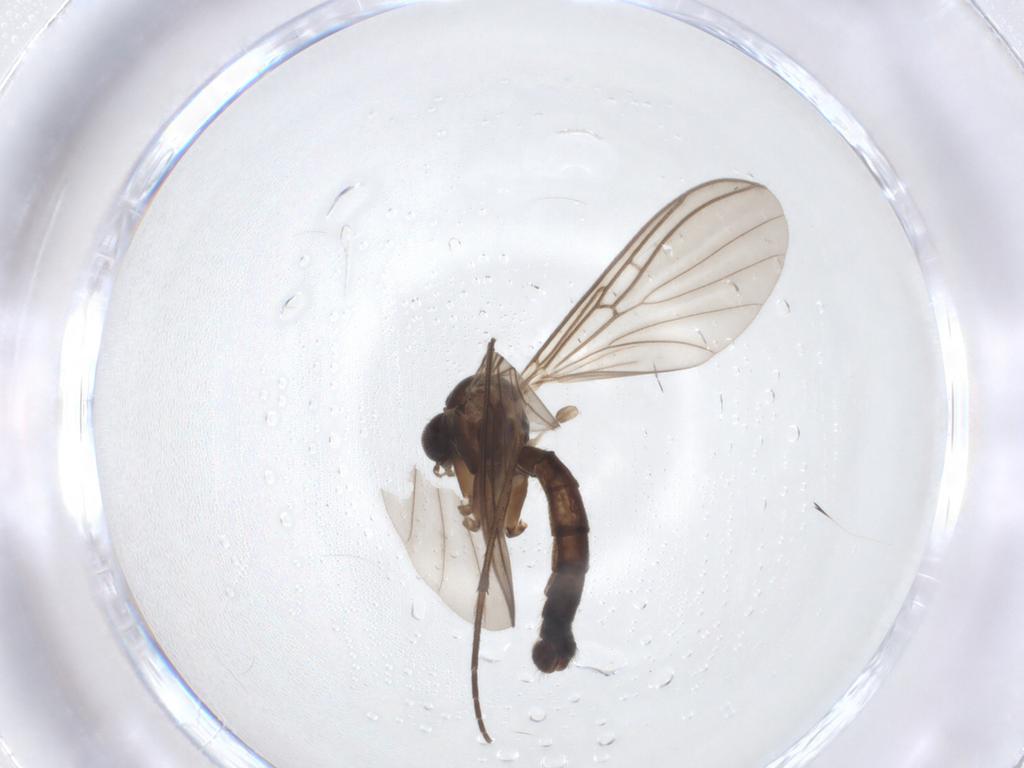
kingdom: Animalia
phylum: Arthropoda
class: Insecta
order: Diptera
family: Mycetophilidae
